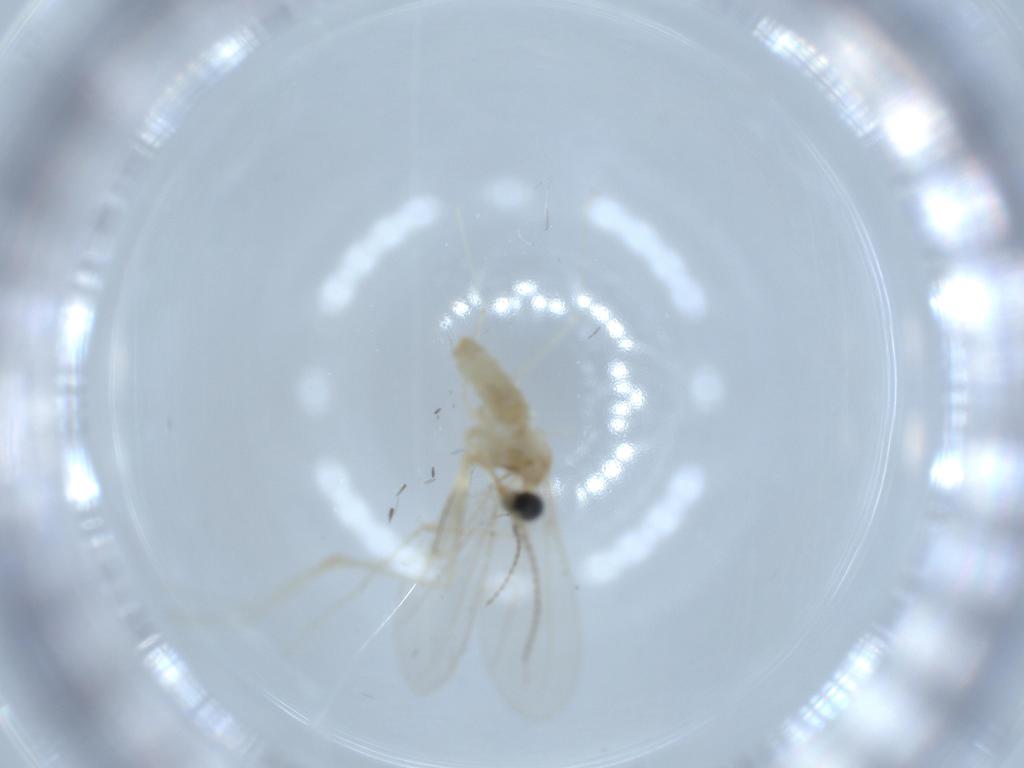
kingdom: Animalia
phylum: Arthropoda
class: Insecta
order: Diptera
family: Cecidomyiidae
